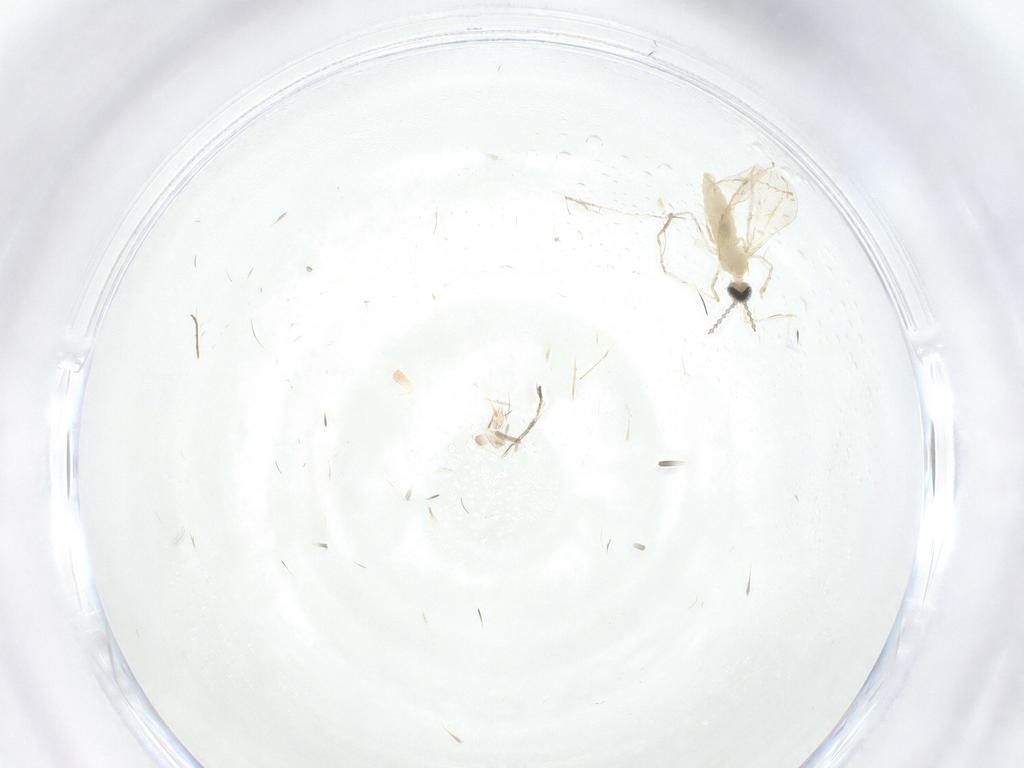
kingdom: Animalia
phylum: Arthropoda
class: Insecta
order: Diptera
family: Cecidomyiidae
